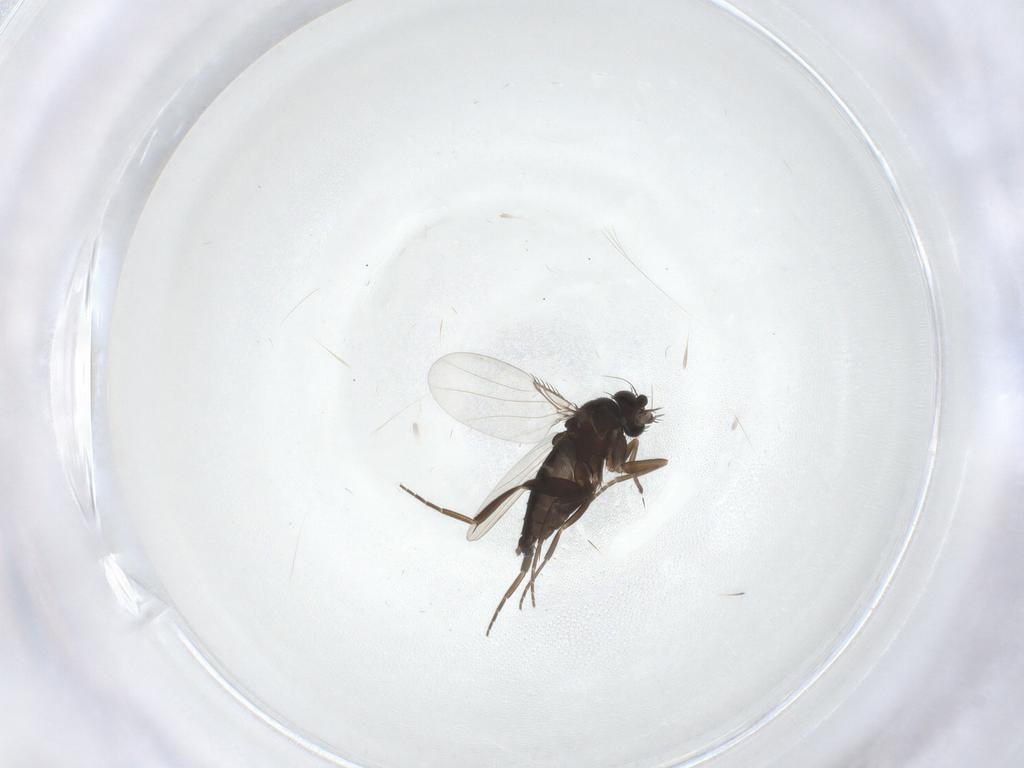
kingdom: Animalia
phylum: Arthropoda
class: Insecta
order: Diptera
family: Phoridae
